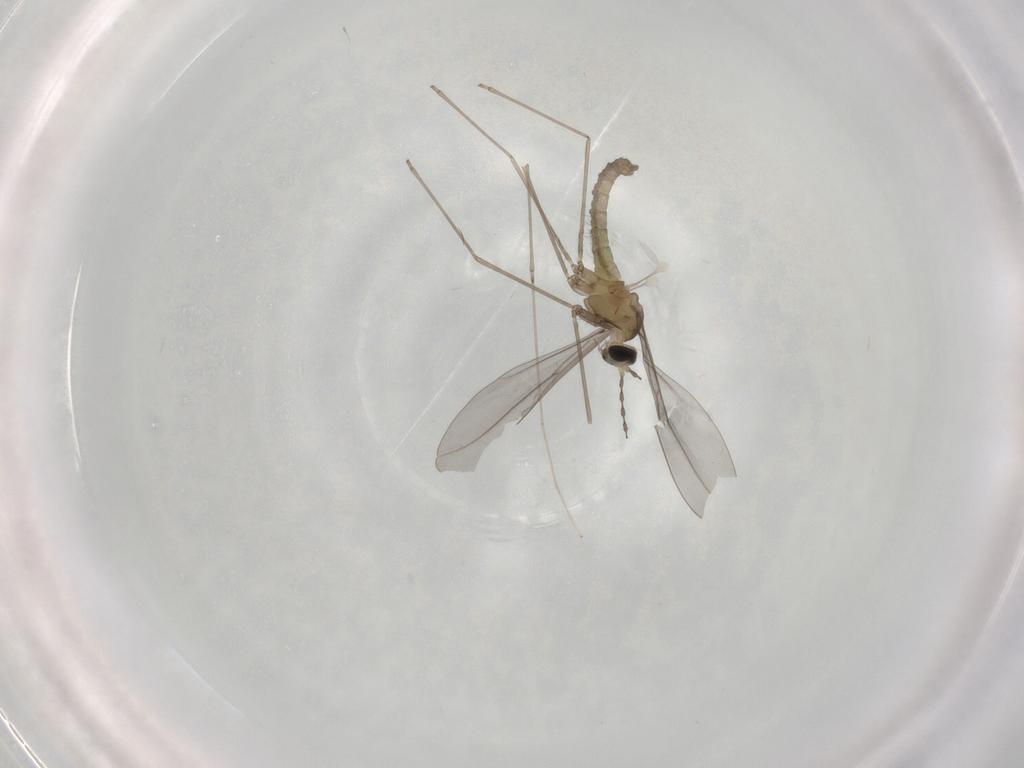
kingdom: Animalia
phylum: Arthropoda
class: Insecta
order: Diptera
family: Cecidomyiidae
